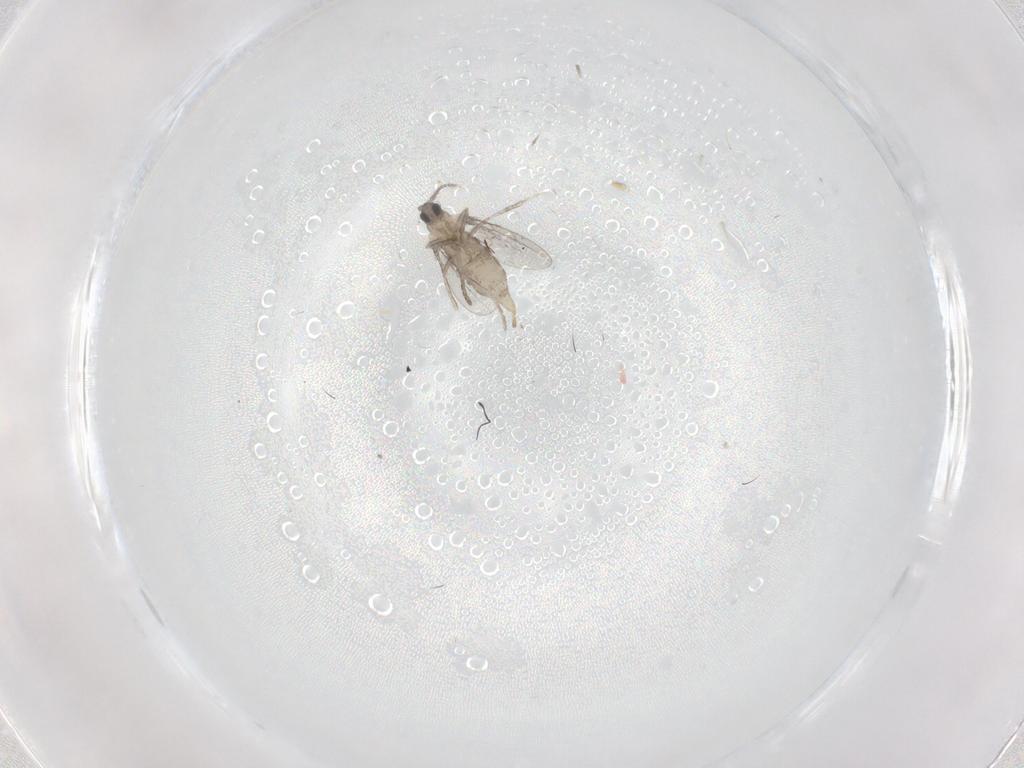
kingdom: Animalia
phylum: Arthropoda
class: Insecta
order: Diptera
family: Cecidomyiidae
